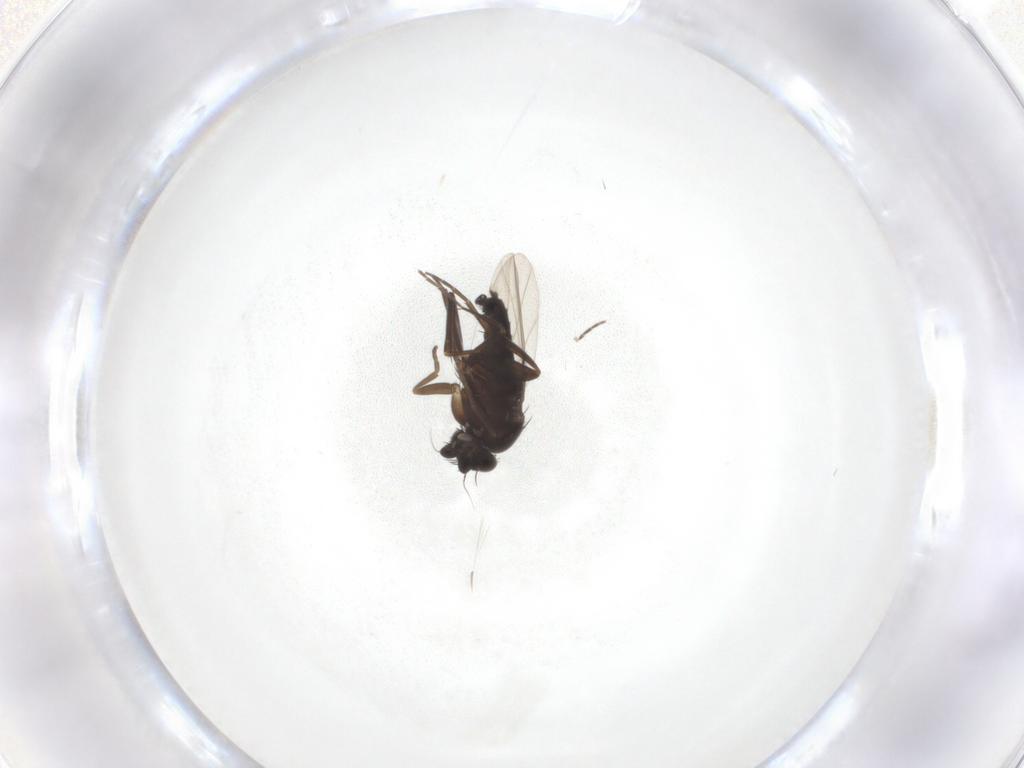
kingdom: Animalia
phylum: Arthropoda
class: Insecta
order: Diptera
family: Tephritidae
